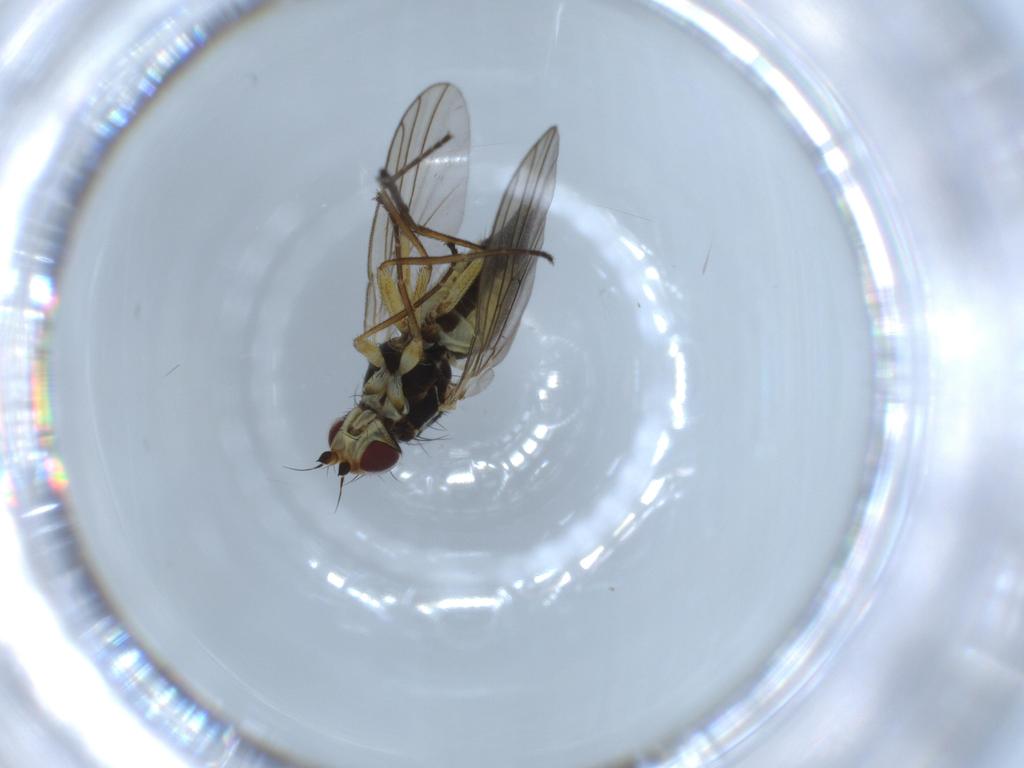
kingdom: Animalia
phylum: Arthropoda
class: Insecta
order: Diptera
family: Agromyzidae
